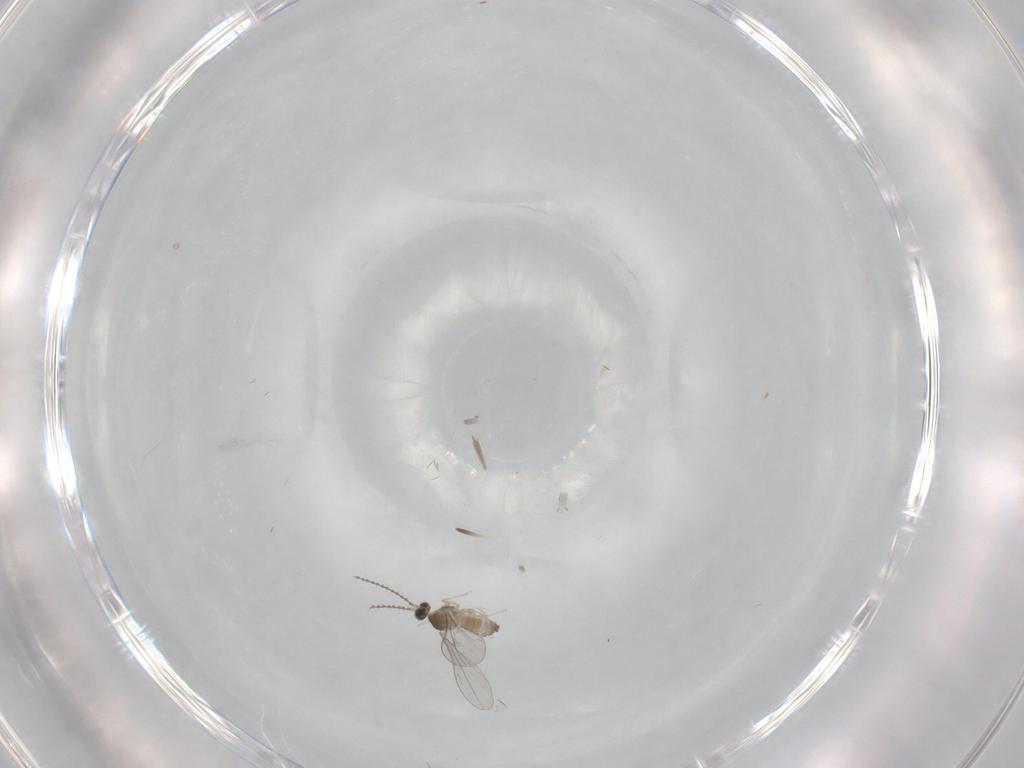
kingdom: Animalia
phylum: Arthropoda
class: Insecta
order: Diptera
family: Cecidomyiidae
